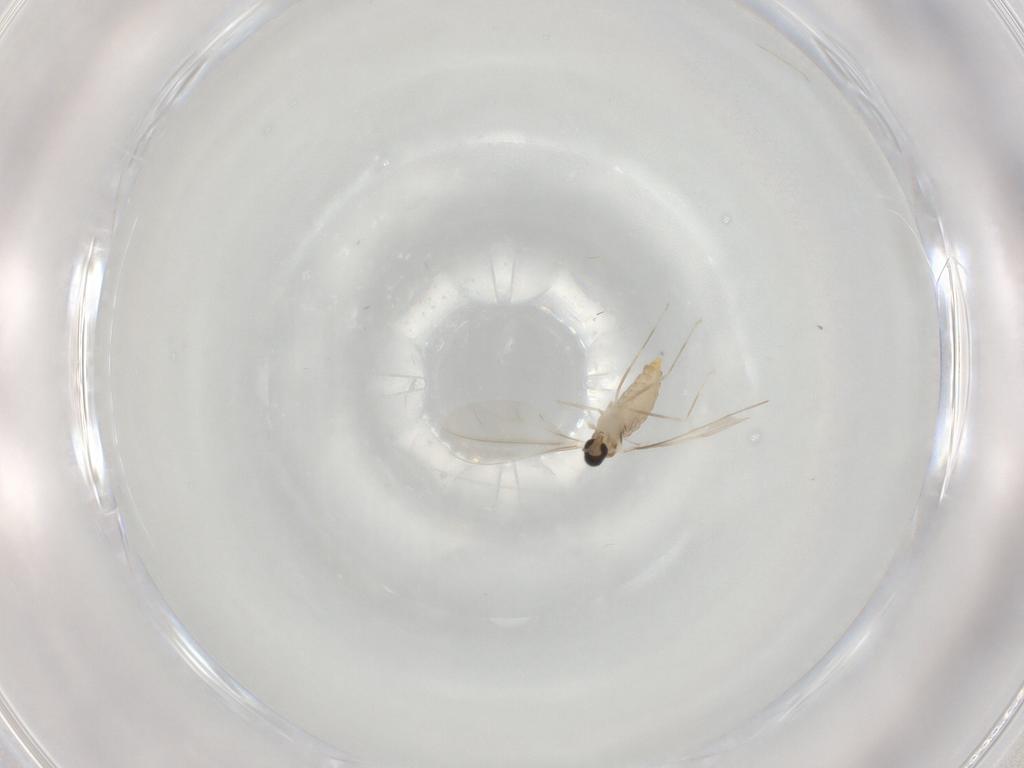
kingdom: Animalia
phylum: Arthropoda
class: Insecta
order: Diptera
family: Cecidomyiidae
